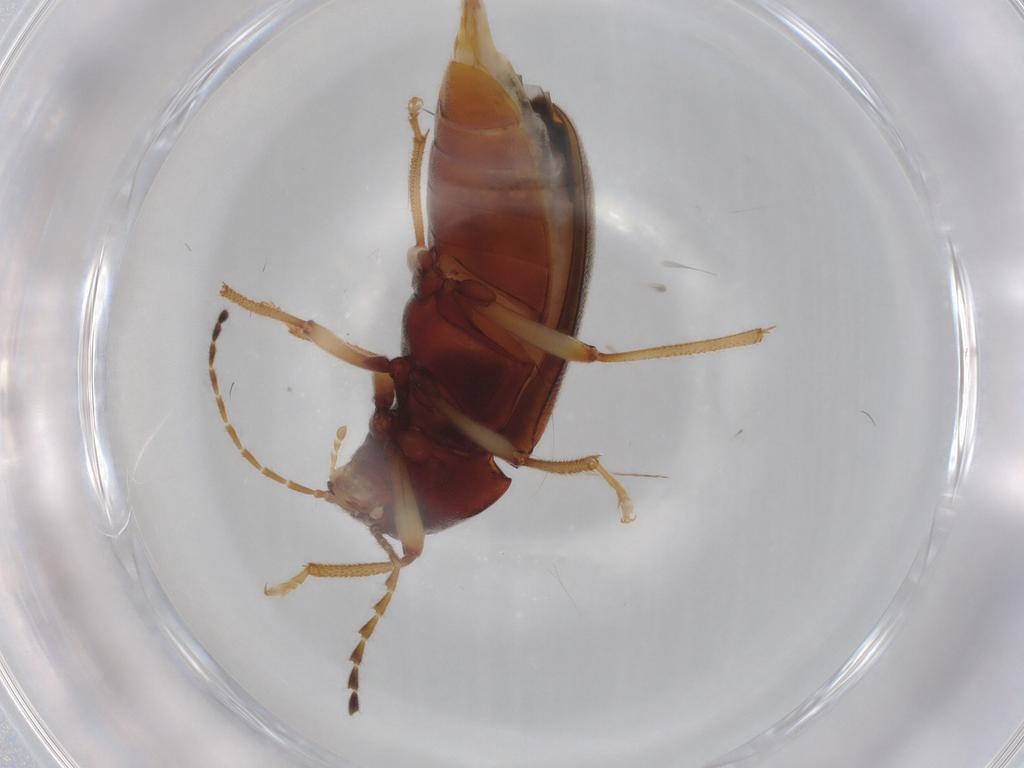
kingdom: Animalia
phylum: Arthropoda
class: Insecta
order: Coleoptera
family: Ptilodactylidae
